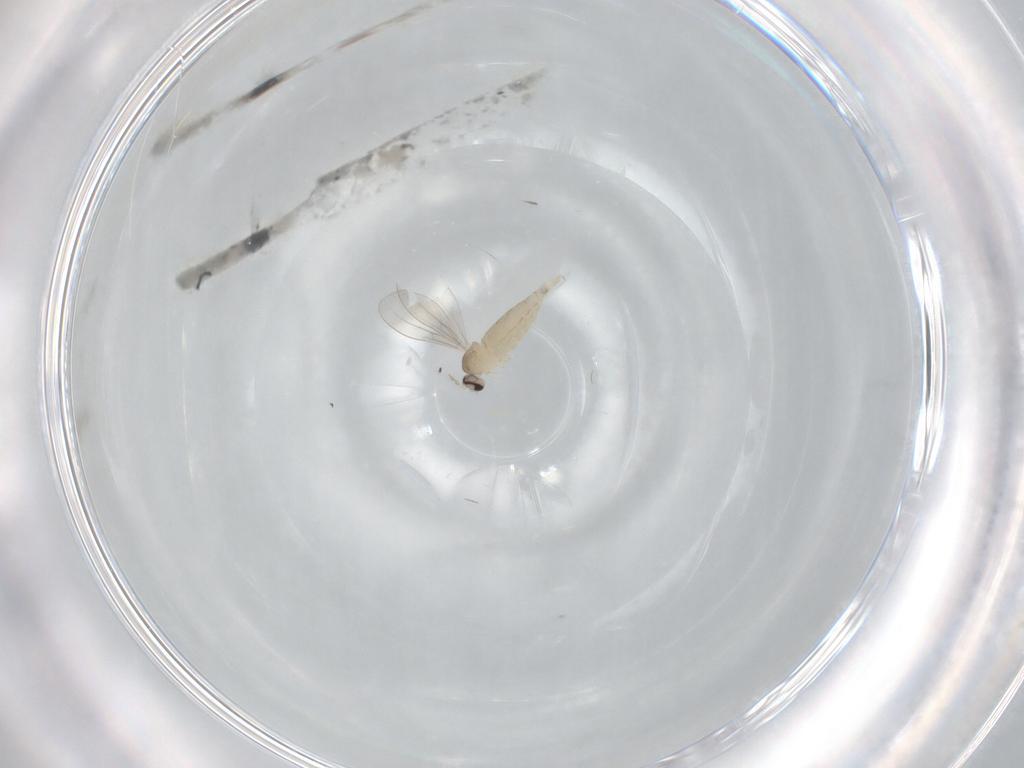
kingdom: Animalia
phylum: Arthropoda
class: Insecta
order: Diptera
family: Cecidomyiidae
